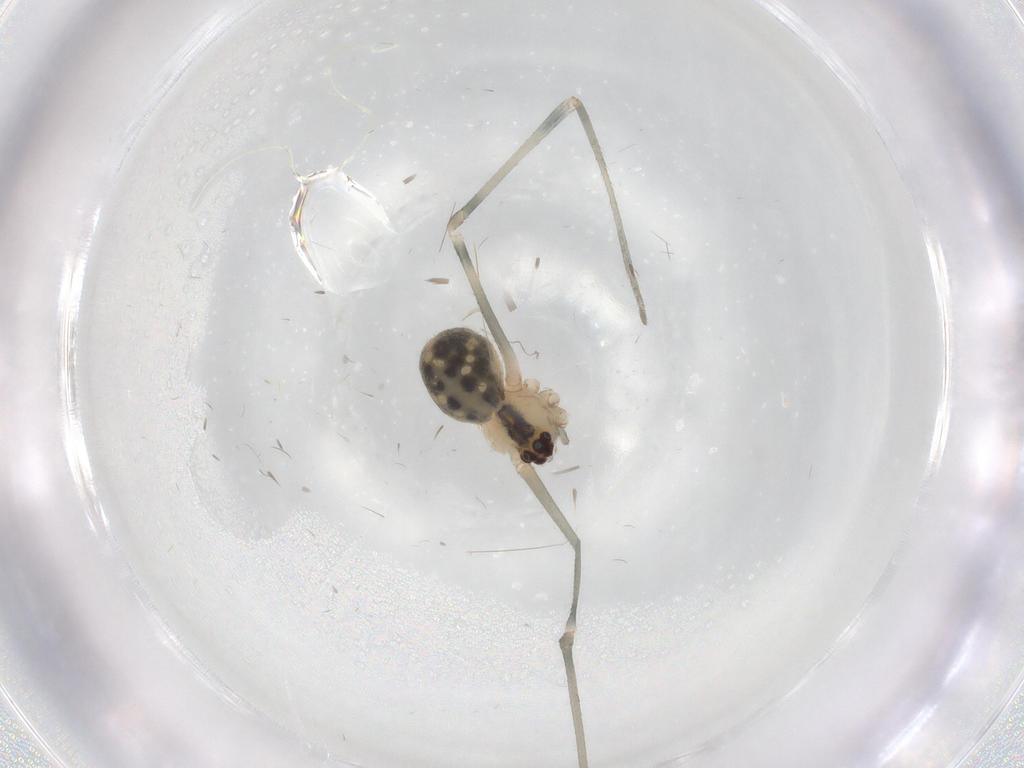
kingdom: Animalia
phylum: Arthropoda
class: Arachnida
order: Araneae
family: Pholcidae
